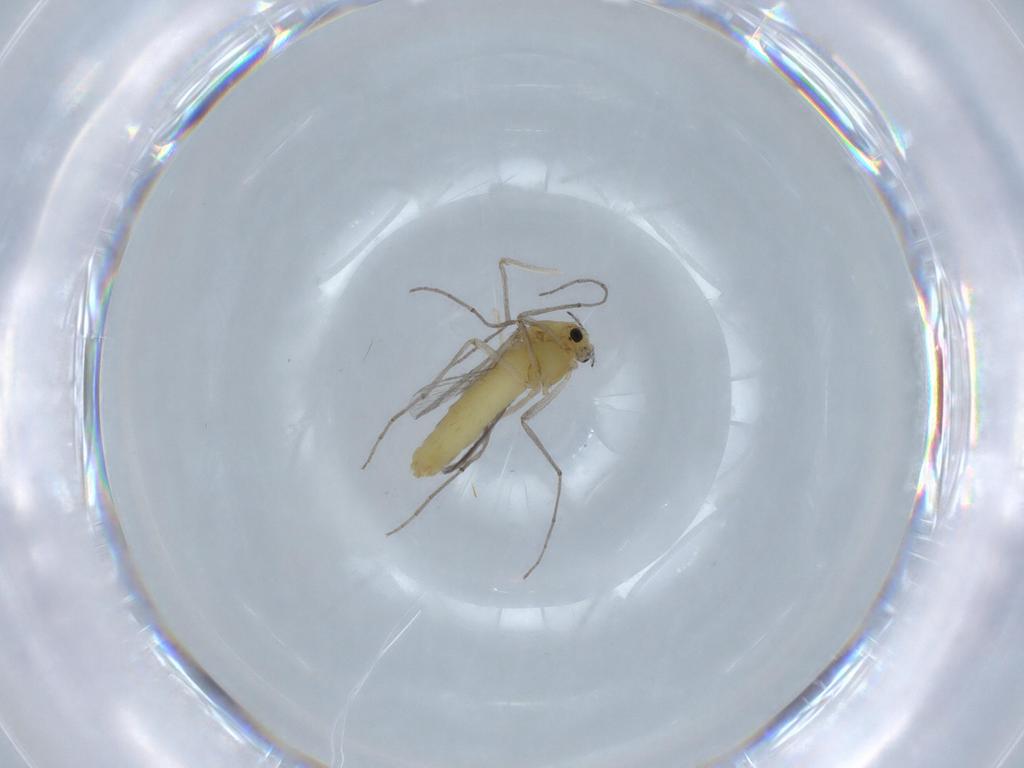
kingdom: Animalia
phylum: Arthropoda
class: Insecta
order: Diptera
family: Chironomidae
